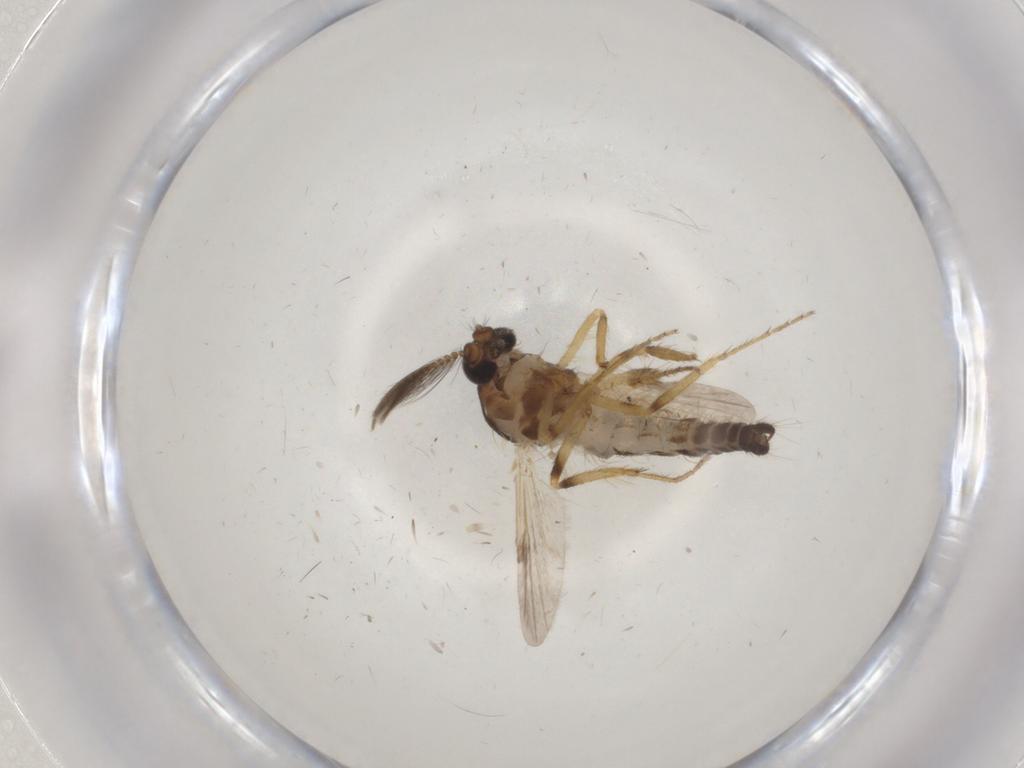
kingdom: Animalia
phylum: Arthropoda
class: Insecta
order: Diptera
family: Ceratopogonidae
